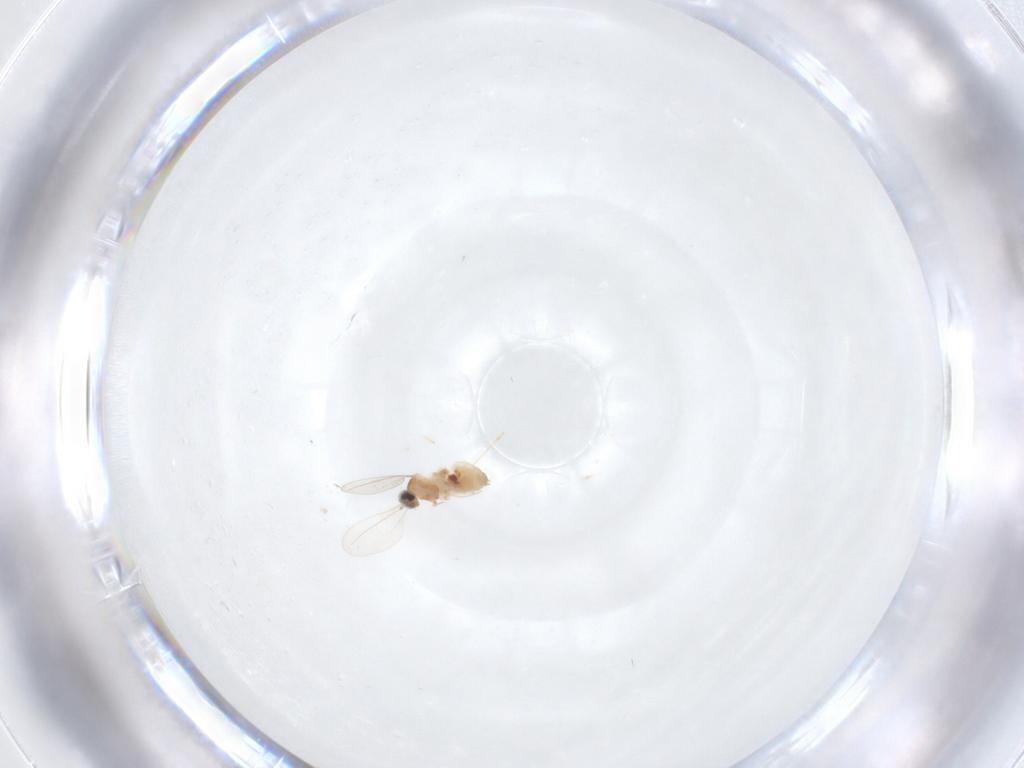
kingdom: Animalia
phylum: Arthropoda
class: Insecta
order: Diptera
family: Cecidomyiidae
